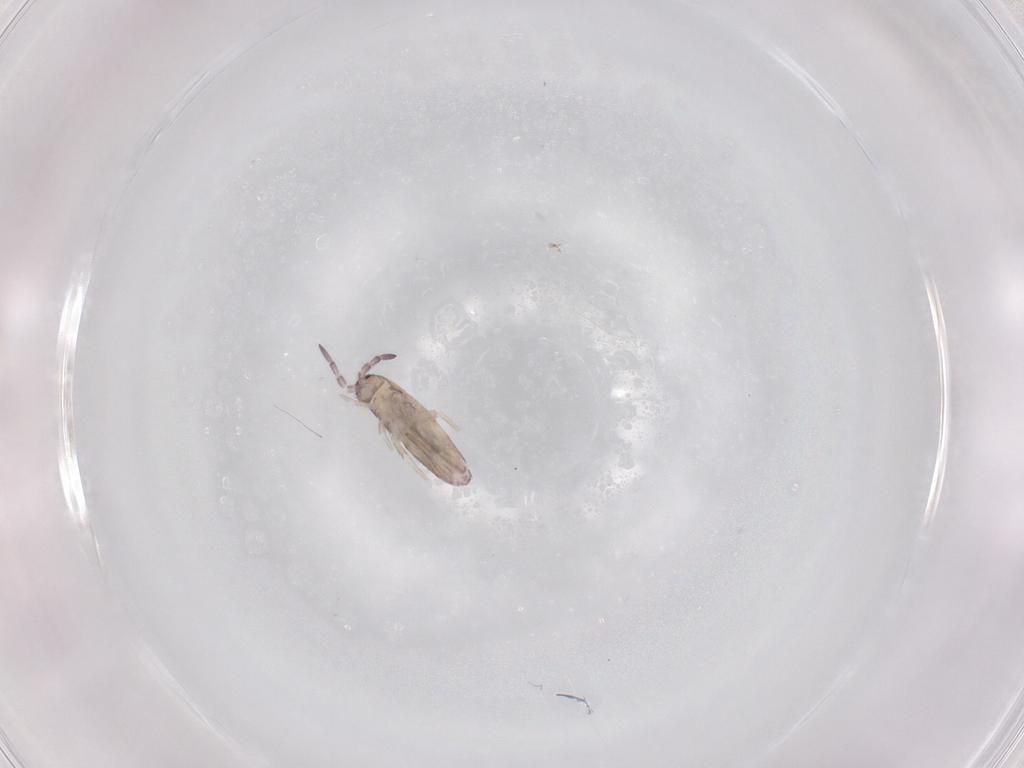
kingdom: Animalia
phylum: Arthropoda
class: Collembola
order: Entomobryomorpha
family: Entomobryidae
